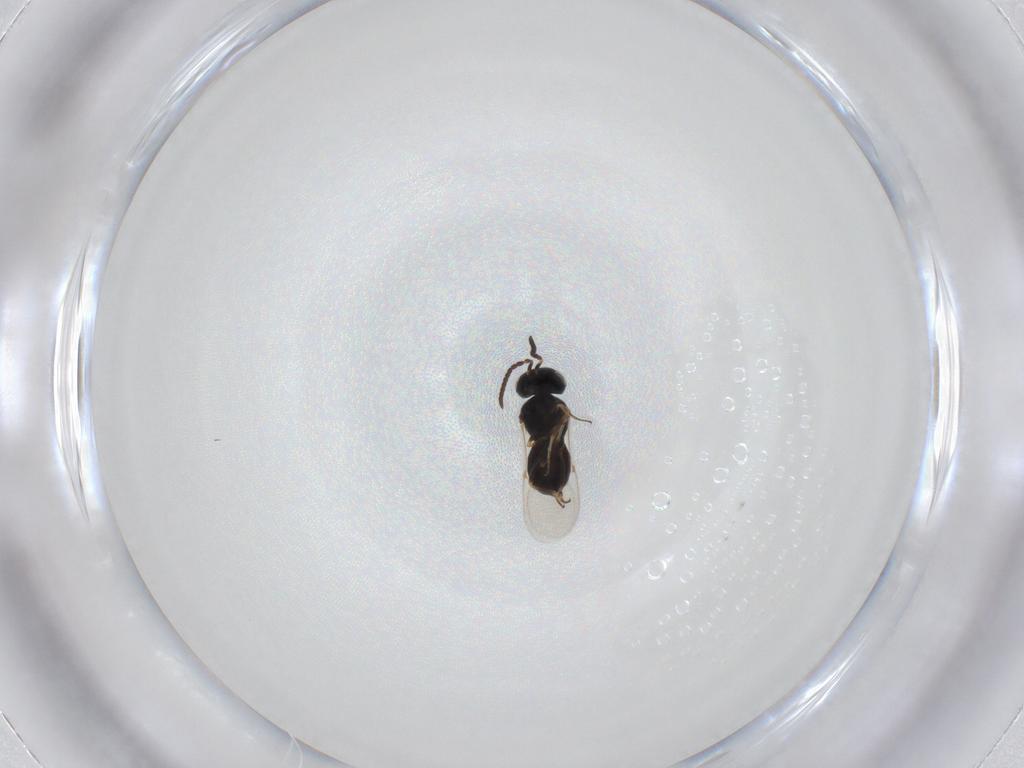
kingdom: Animalia
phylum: Arthropoda
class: Insecta
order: Hymenoptera
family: Scelionidae
